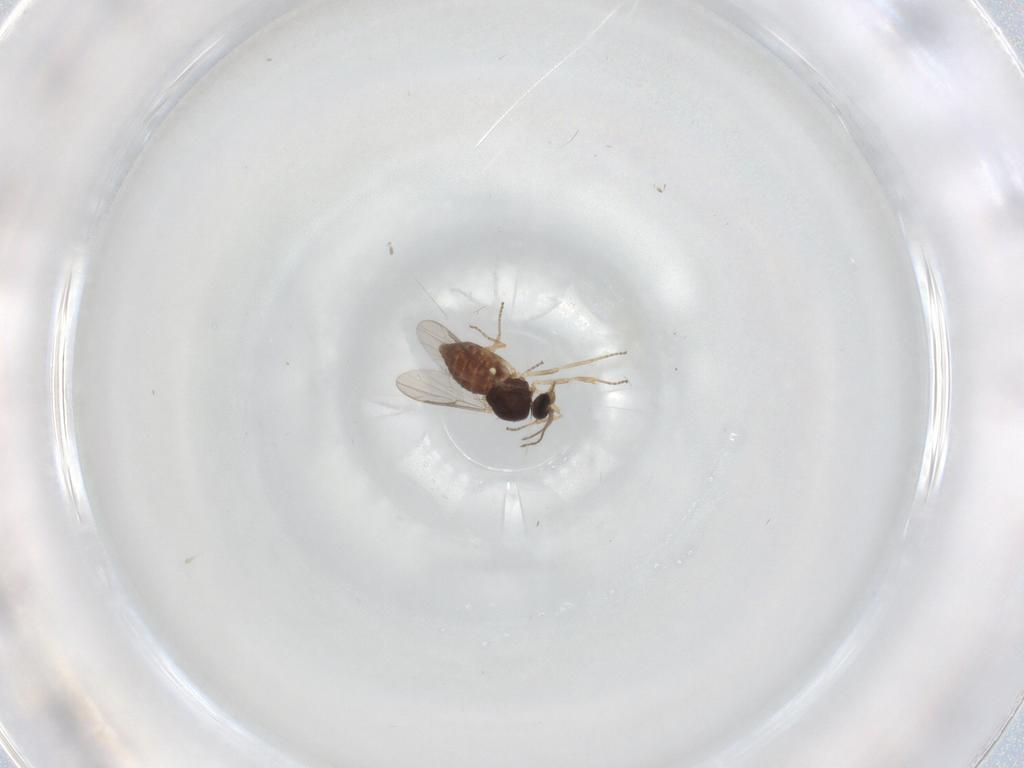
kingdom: Animalia
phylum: Arthropoda
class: Insecta
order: Diptera
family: Ceratopogonidae
